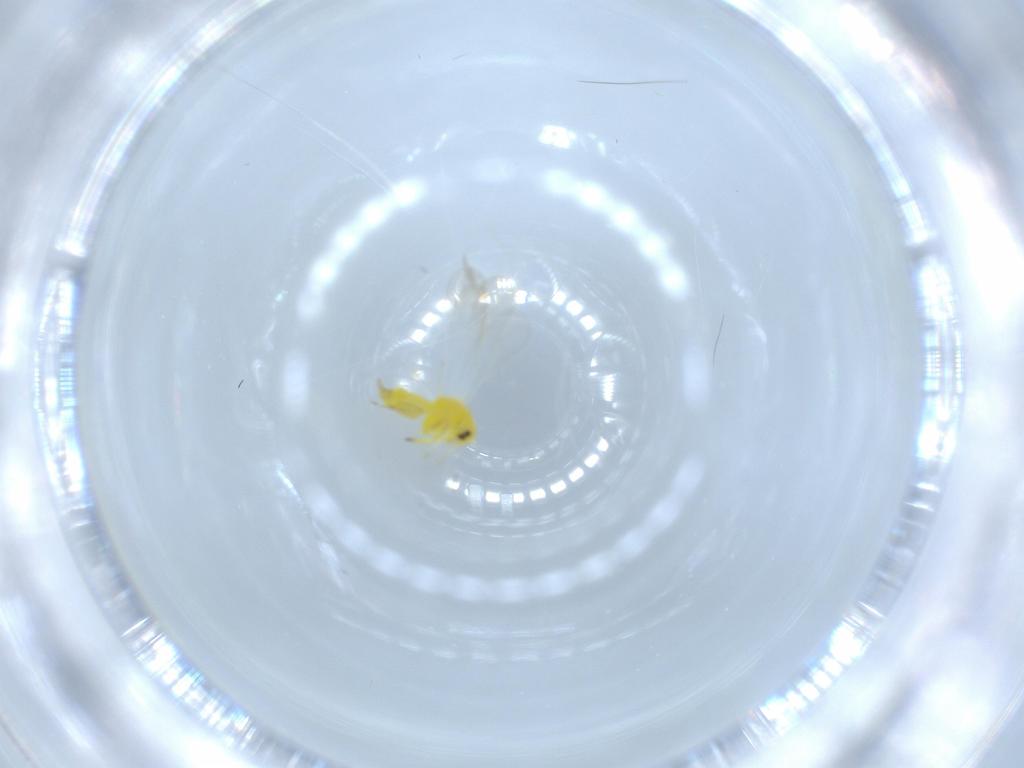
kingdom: Animalia
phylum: Arthropoda
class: Insecta
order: Hemiptera
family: Aleyrodidae
